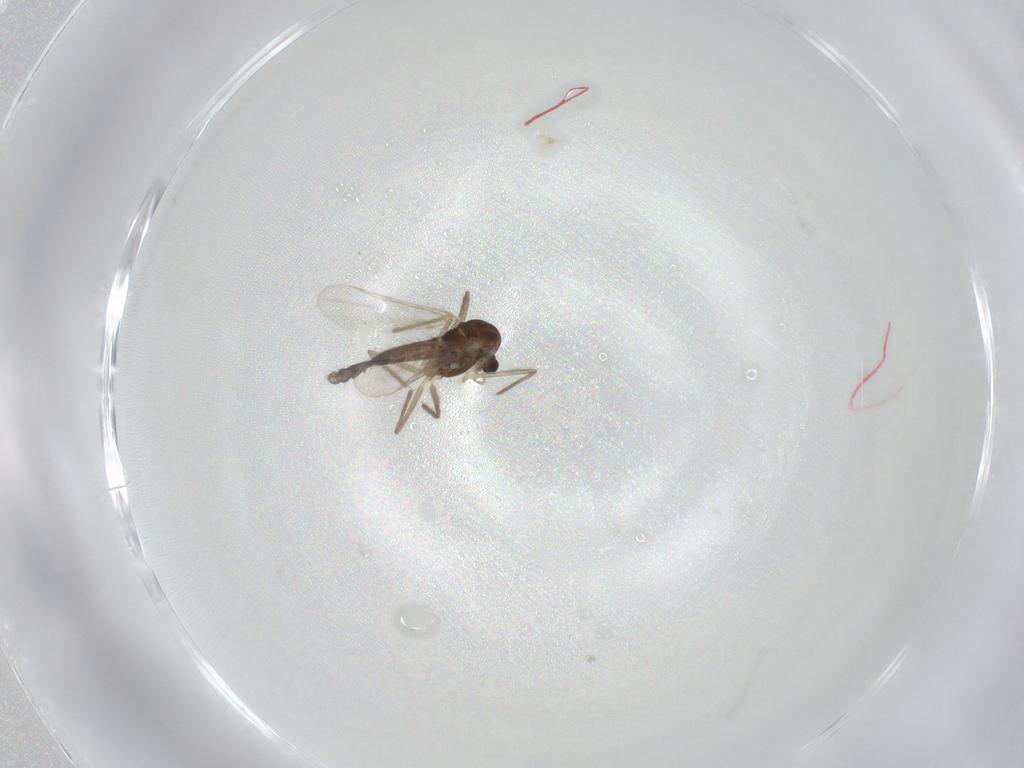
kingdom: Animalia
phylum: Arthropoda
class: Insecta
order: Diptera
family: Chironomidae
